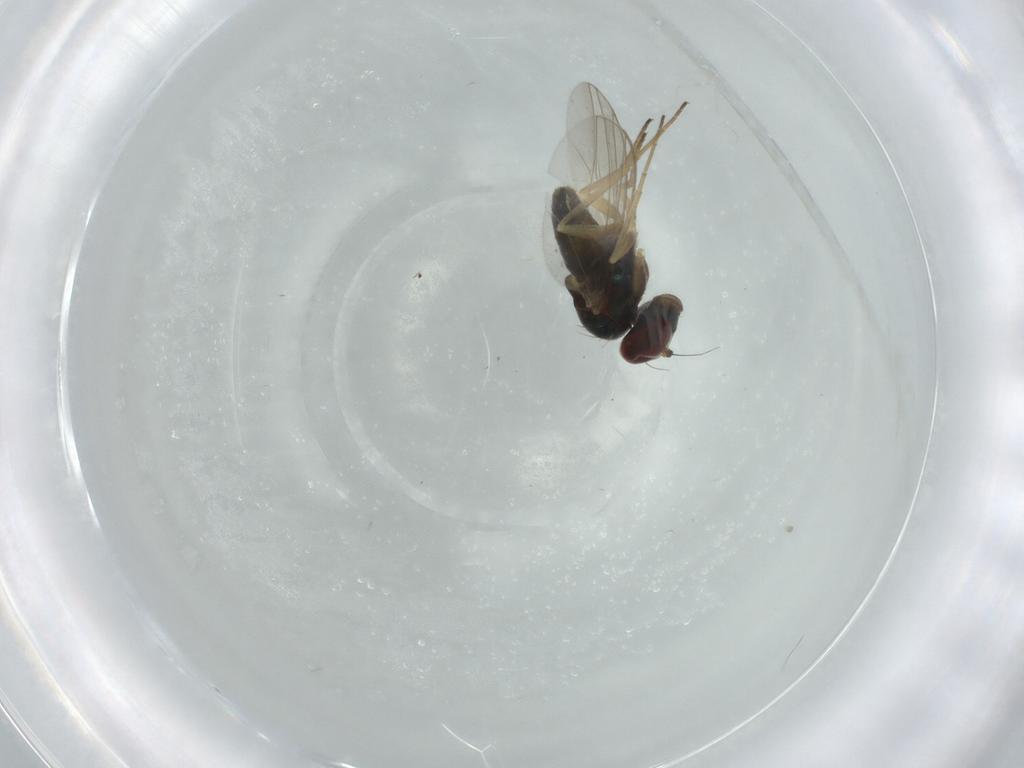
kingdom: Animalia
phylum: Arthropoda
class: Insecta
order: Diptera
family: Dolichopodidae
